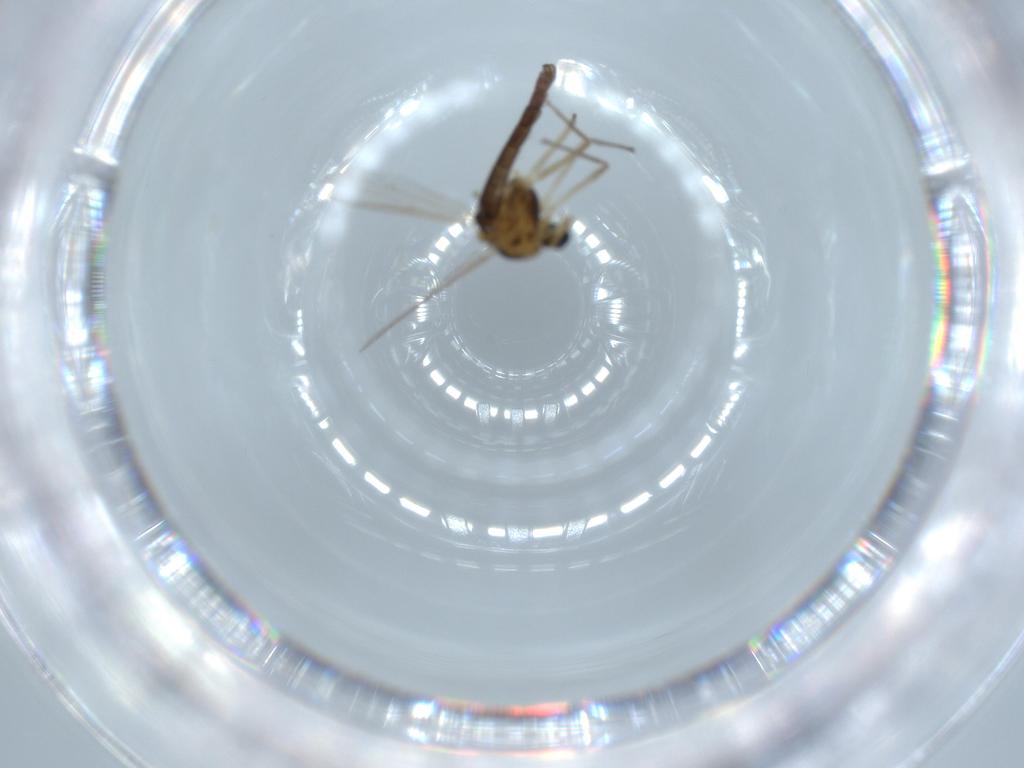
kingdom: Animalia
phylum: Arthropoda
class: Insecta
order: Diptera
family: Chironomidae
